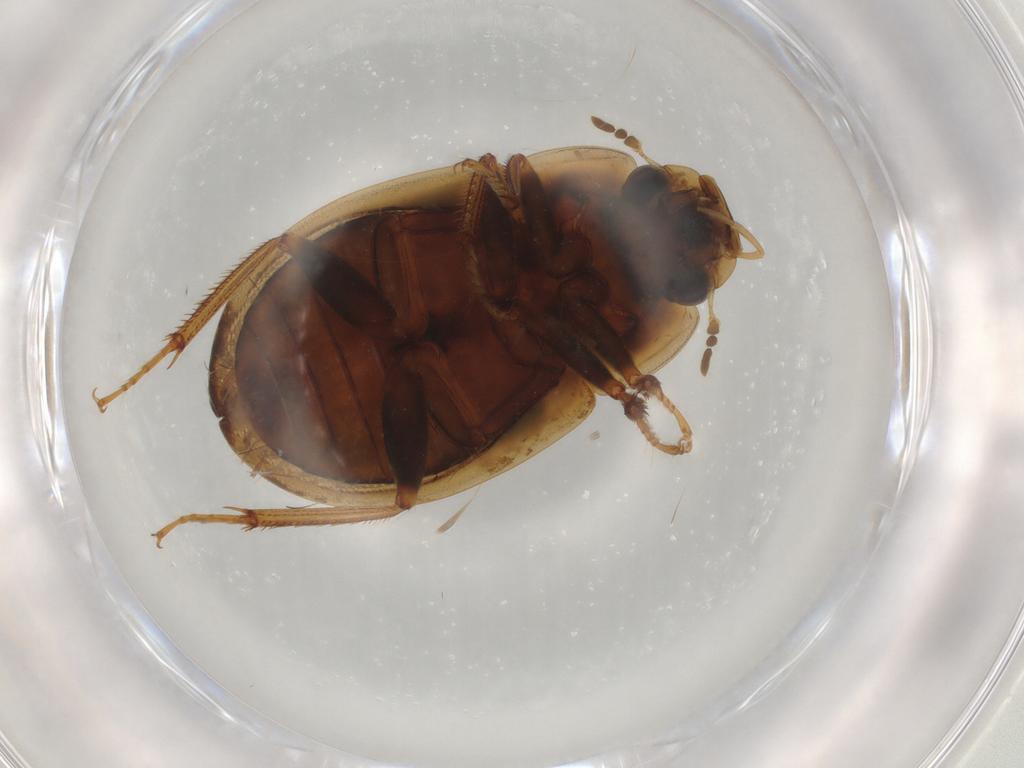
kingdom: Animalia
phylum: Arthropoda
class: Insecta
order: Coleoptera
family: Hydrophilidae
